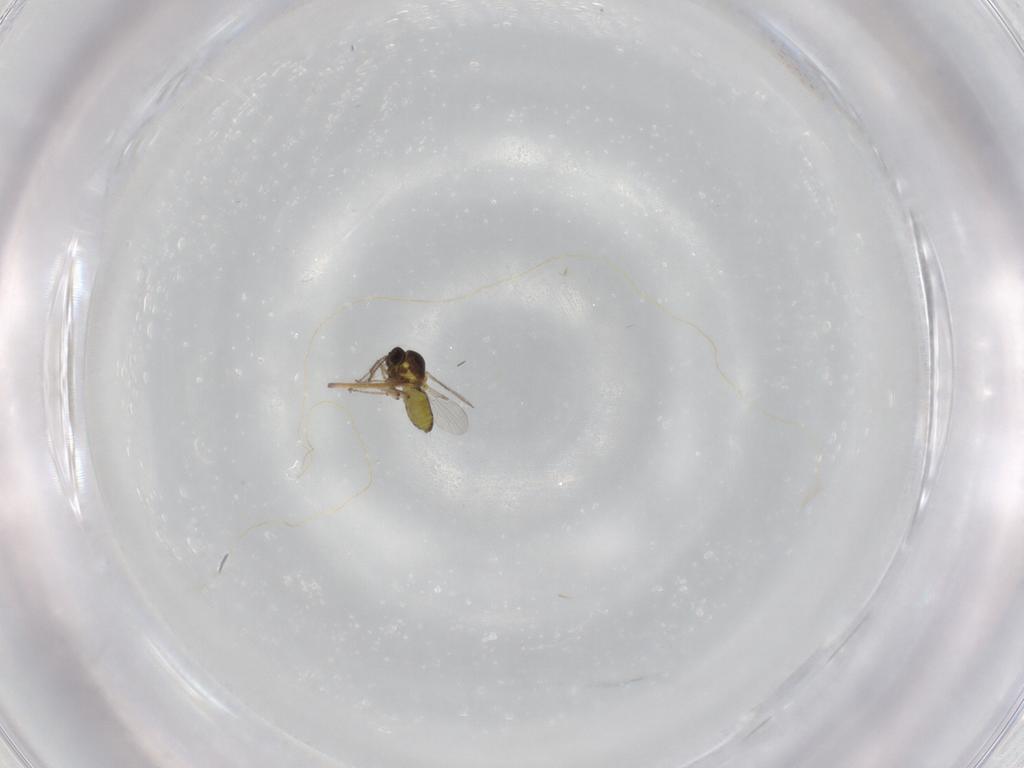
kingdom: Animalia
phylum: Arthropoda
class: Insecta
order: Diptera
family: Ceratopogonidae
